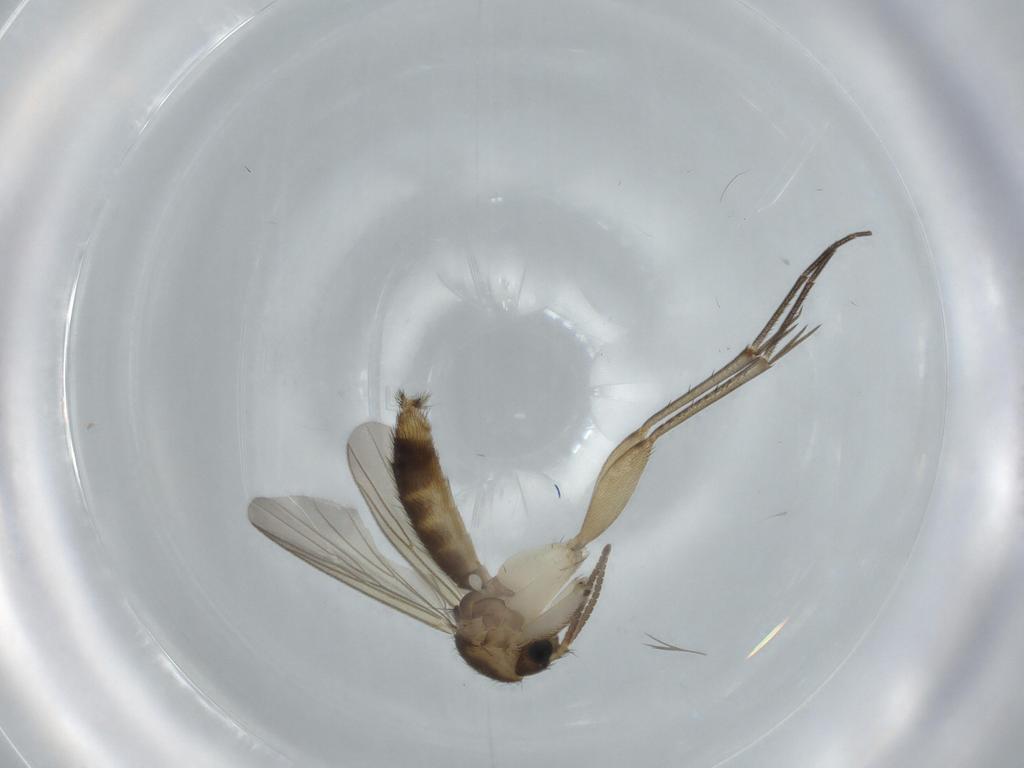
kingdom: Animalia
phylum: Arthropoda
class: Insecta
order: Diptera
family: Mycetophilidae
